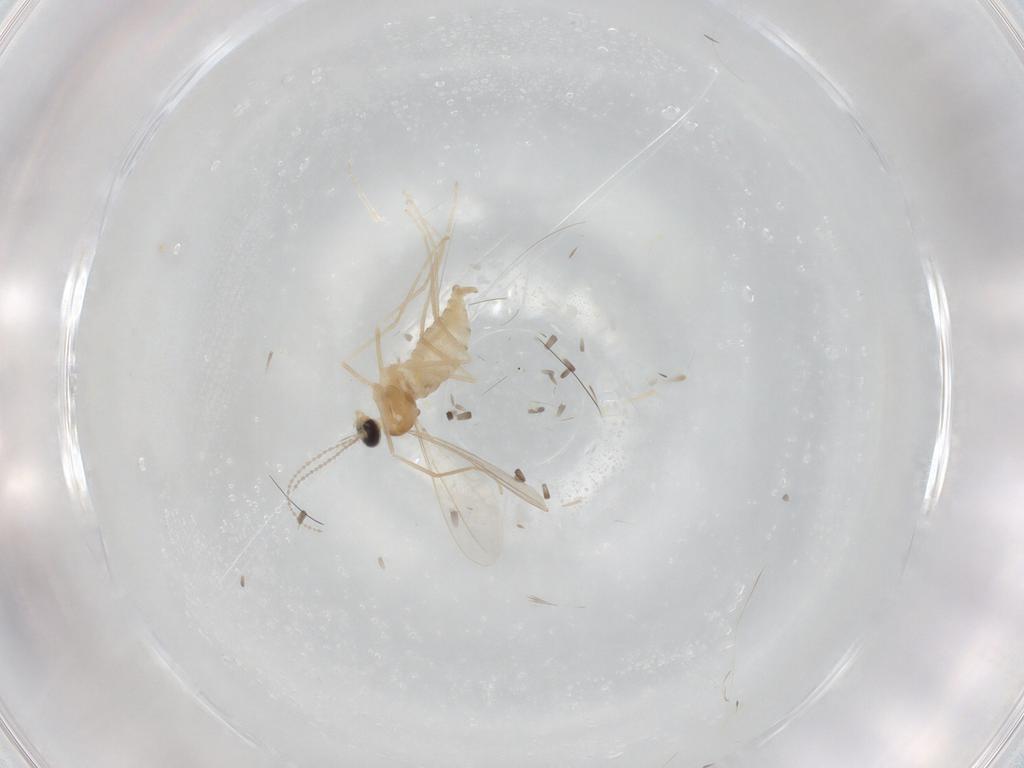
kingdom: Animalia
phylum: Arthropoda
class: Insecta
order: Diptera
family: Cecidomyiidae
